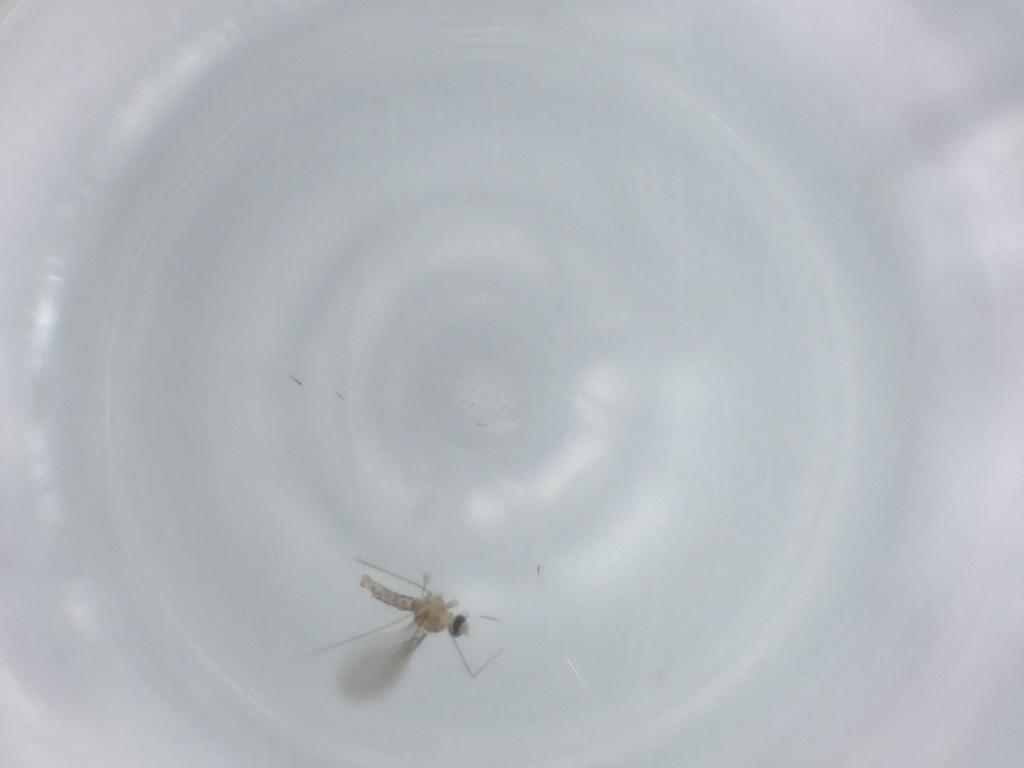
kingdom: Animalia
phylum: Arthropoda
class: Insecta
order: Diptera
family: Cecidomyiidae
